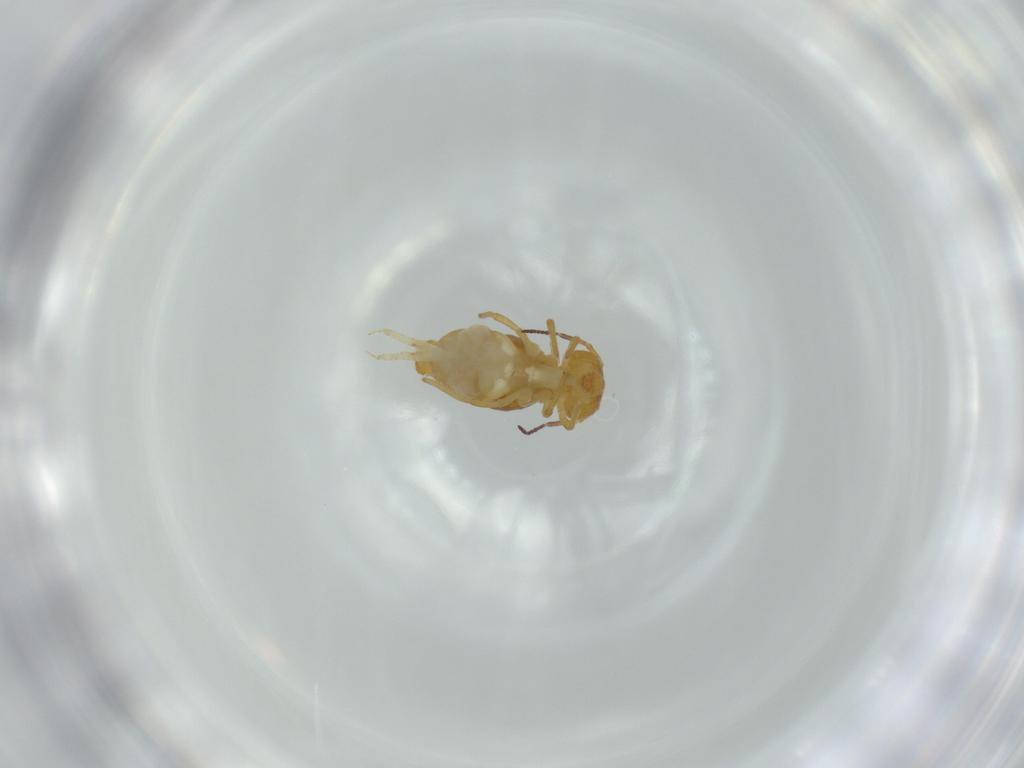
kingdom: Animalia
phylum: Arthropoda
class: Collembola
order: Symphypleona
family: Bourletiellidae
